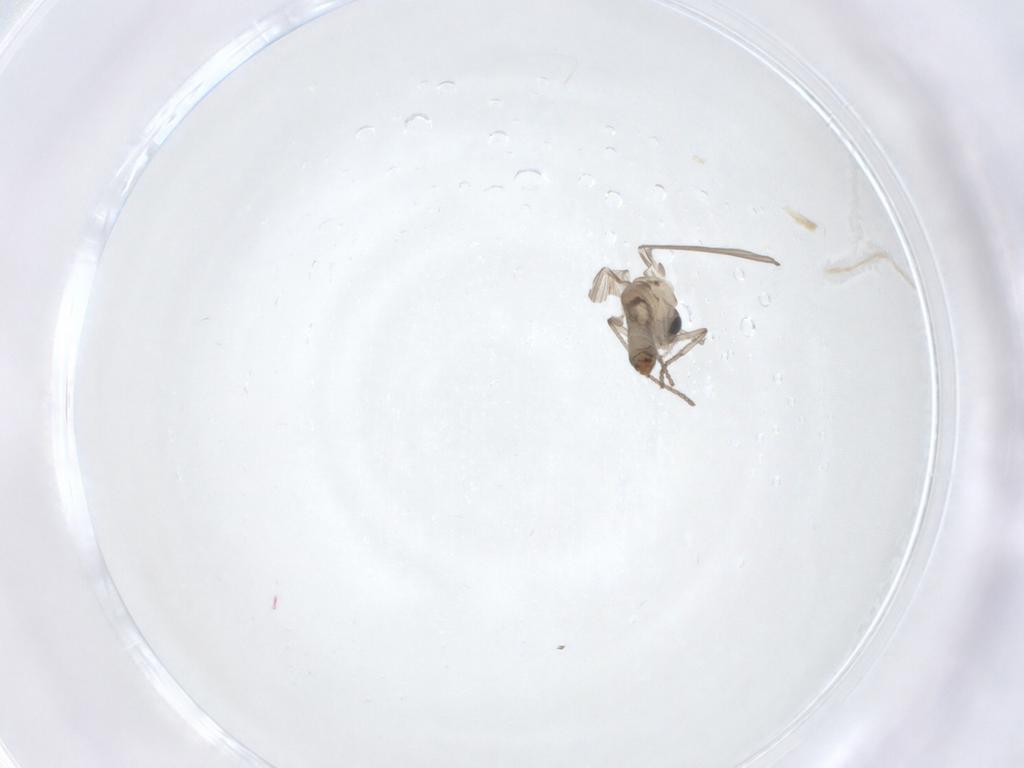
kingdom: Animalia
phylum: Arthropoda
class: Insecta
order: Diptera
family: Psychodidae
